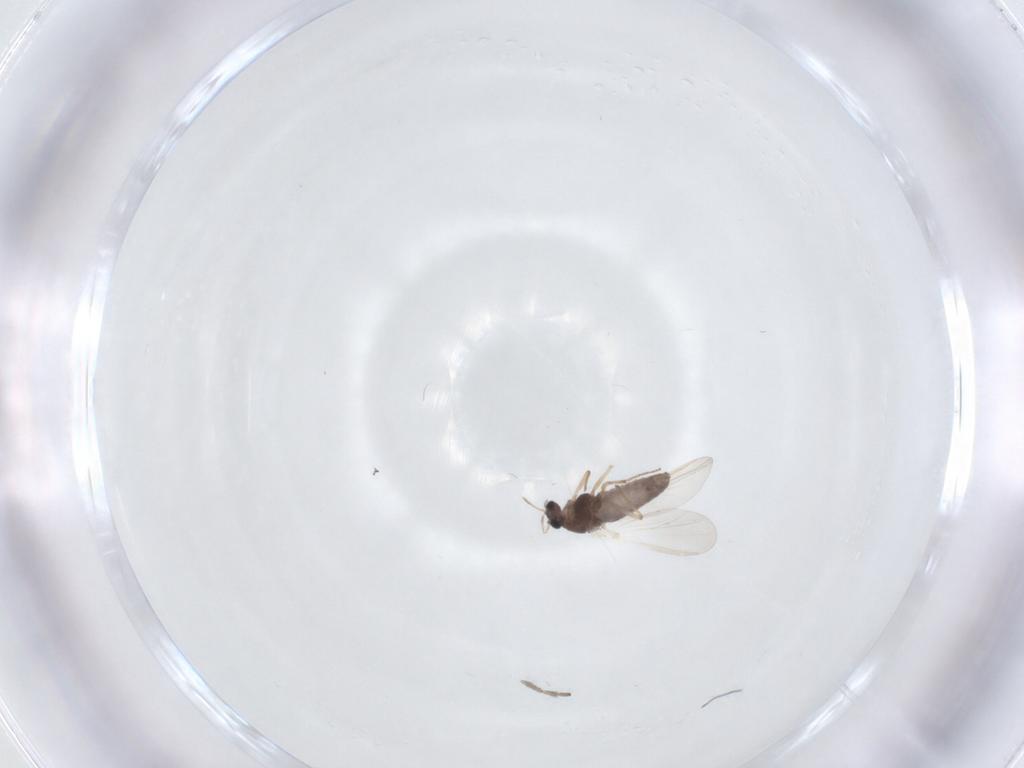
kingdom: Animalia
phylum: Arthropoda
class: Insecta
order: Diptera
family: Chironomidae
